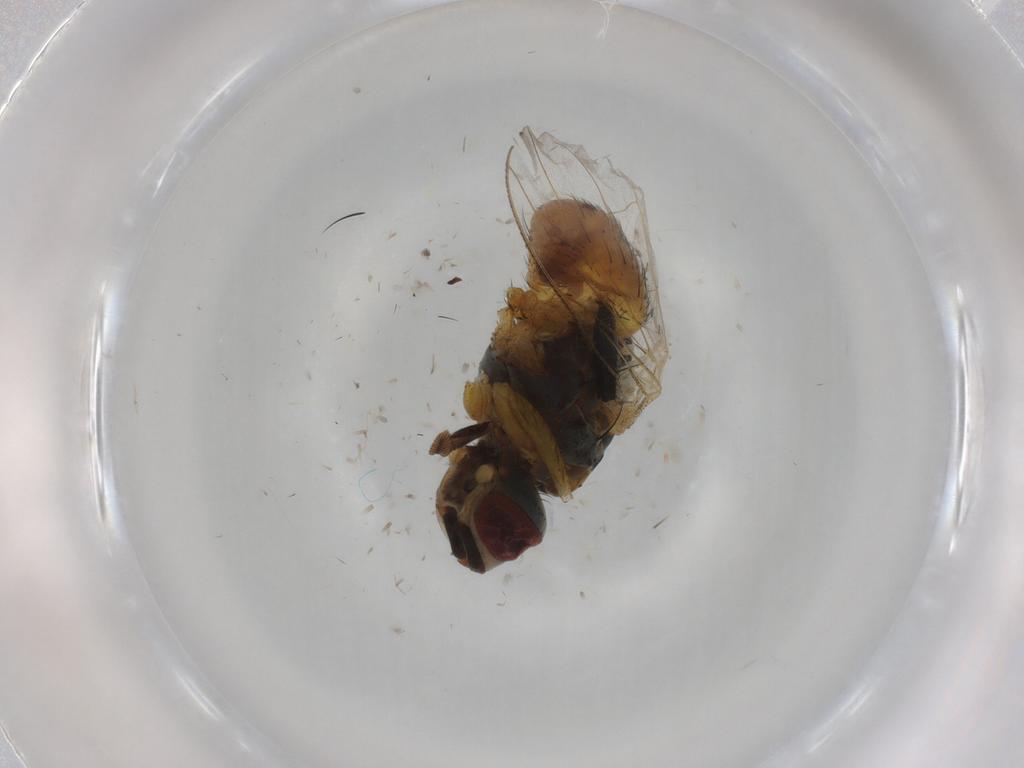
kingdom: Animalia
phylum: Arthropoda
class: Insecta
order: Diptera
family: Muscidae
